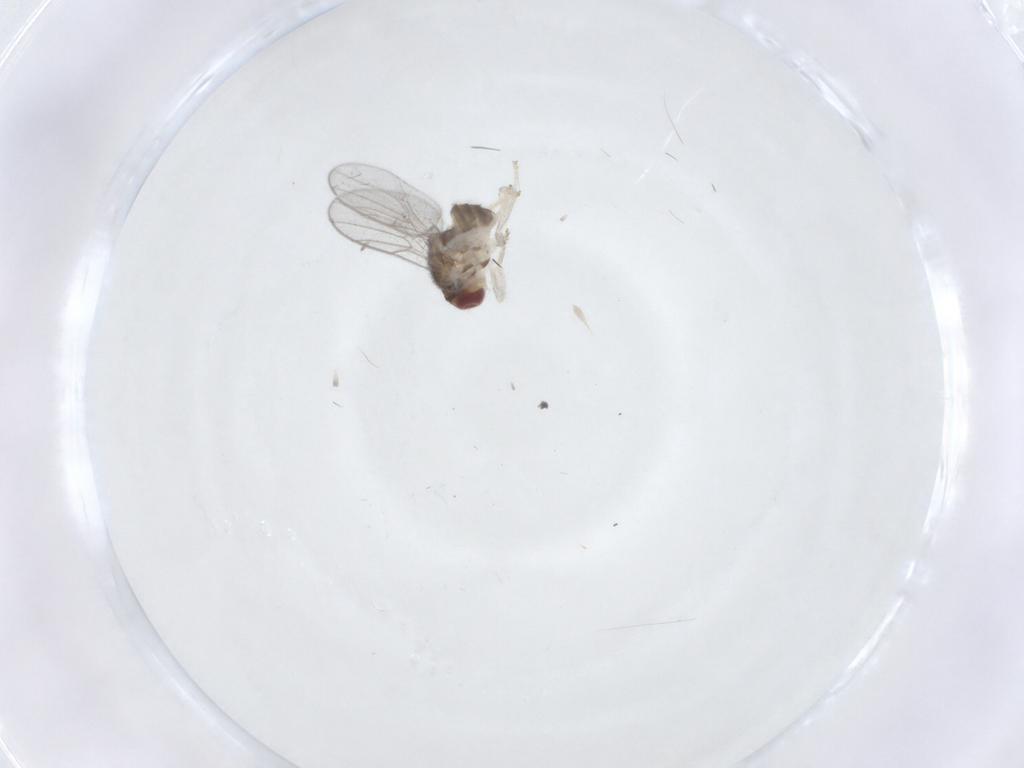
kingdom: Animalia
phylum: Arthropoda
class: Insecta
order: Diptera
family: Chloropidae
